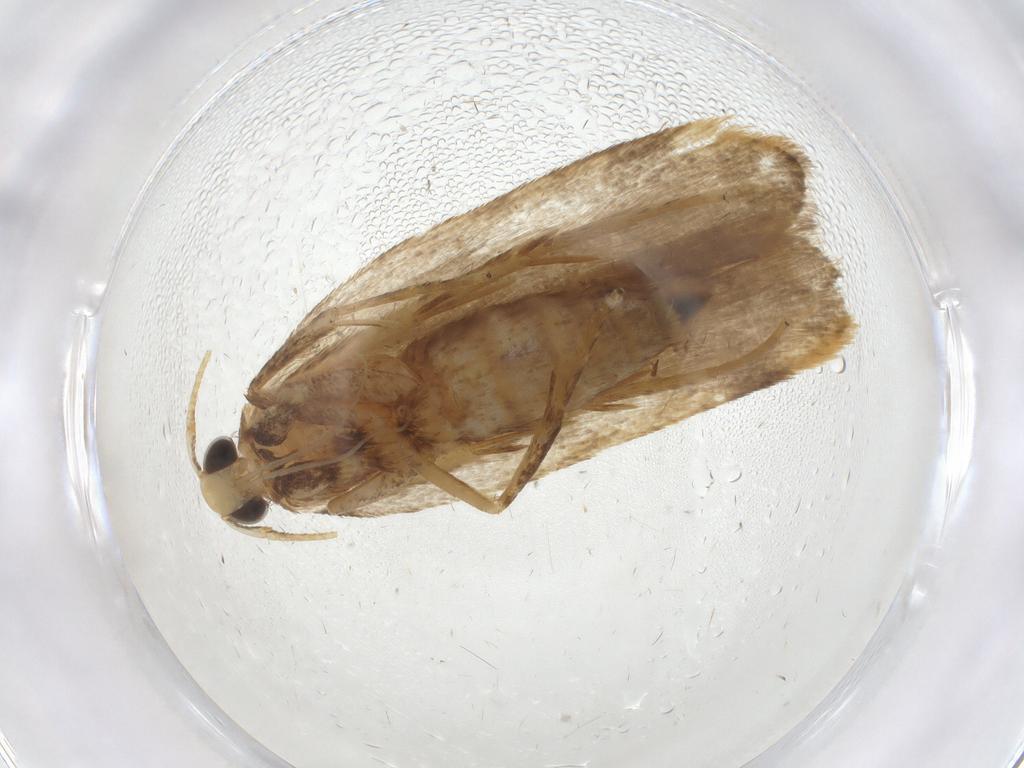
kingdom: Animalia
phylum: Arthropoda
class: Insecta
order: Lepidoptera
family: Autostichidae
